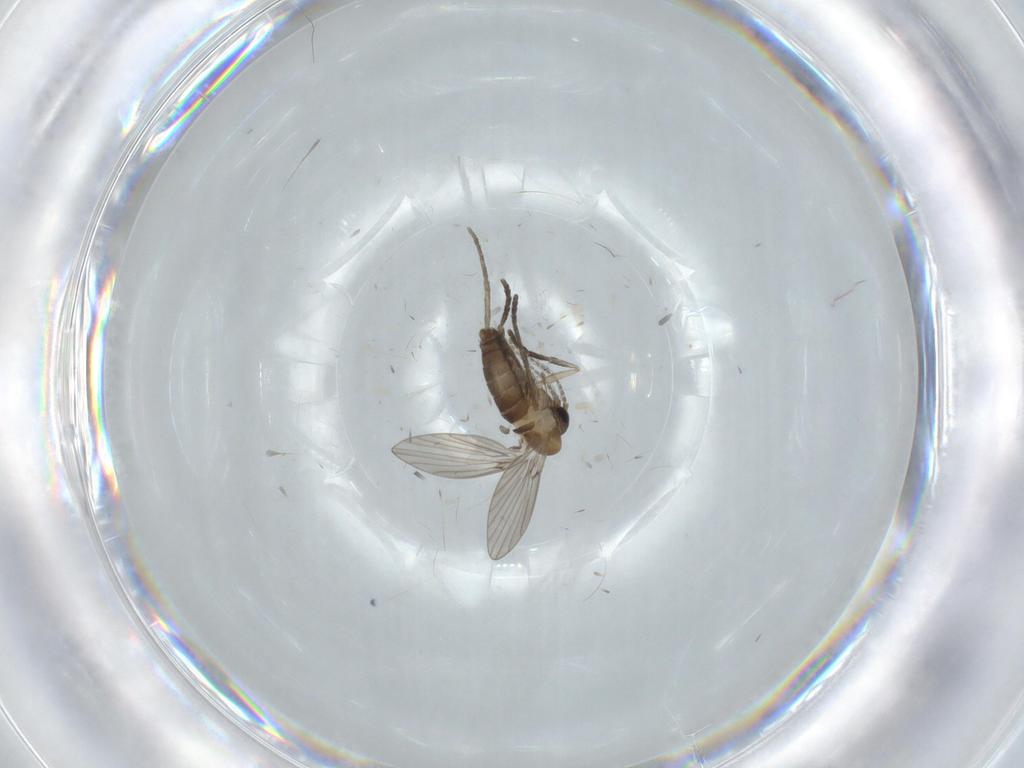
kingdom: Animalia
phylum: Arthropoda
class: Insecta
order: Diptera
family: Psychodidae
